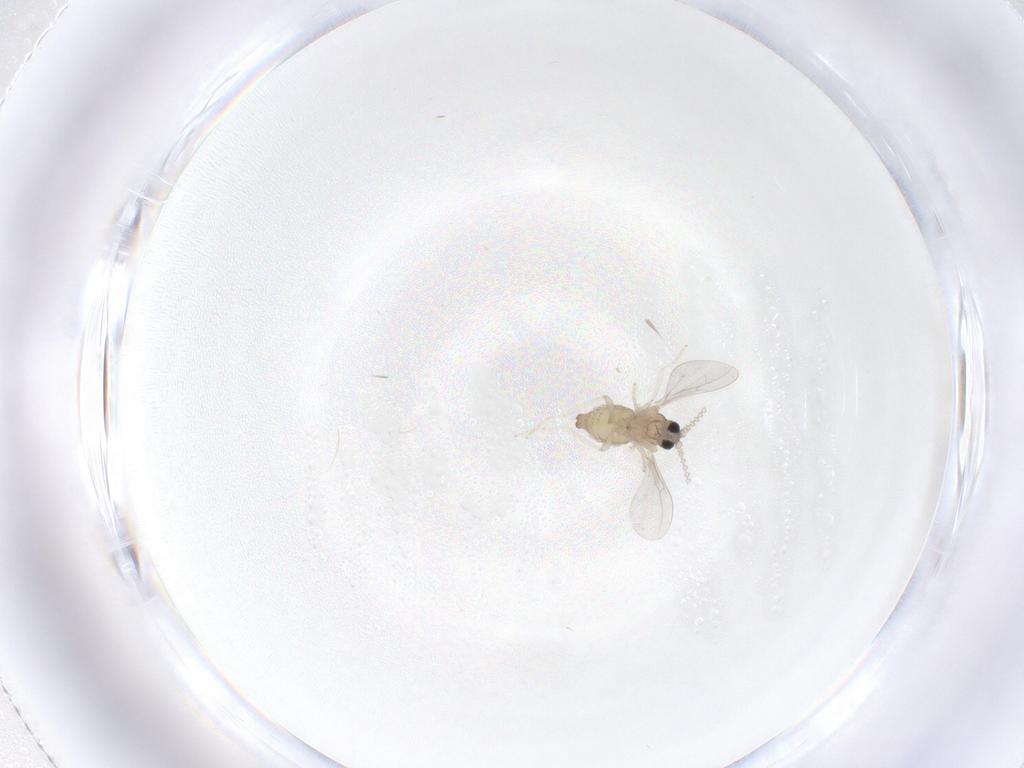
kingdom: Animalia
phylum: Arthropoda
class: Insecta
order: Diptera
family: Cecidomyiidae
